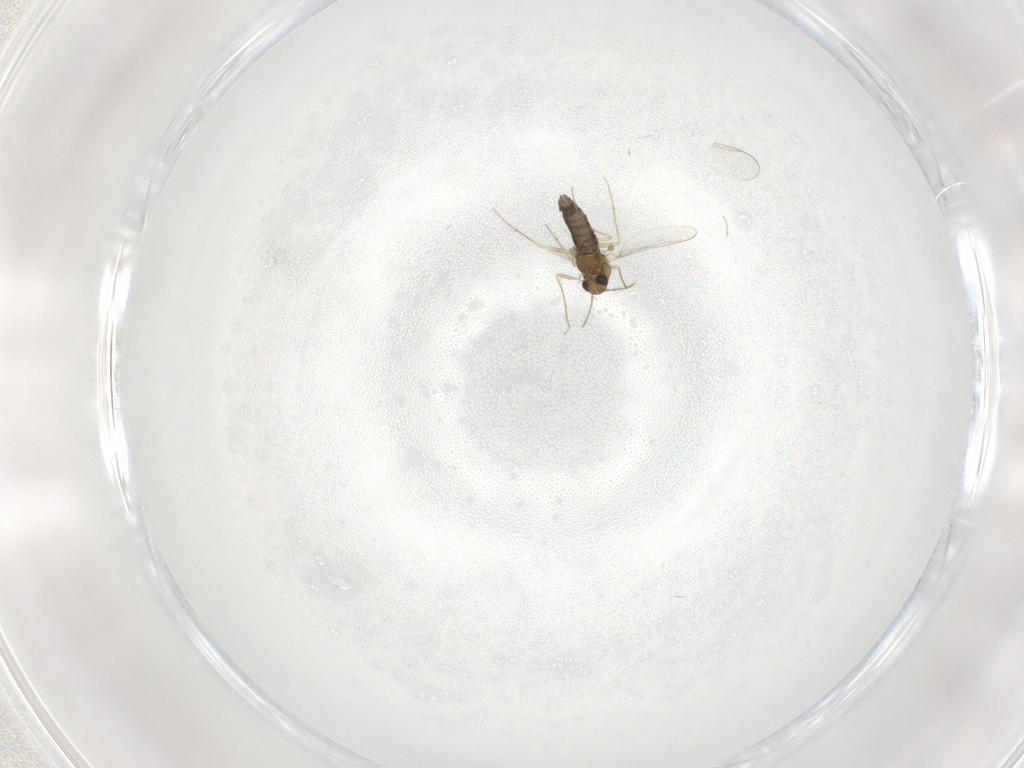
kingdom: Animalia
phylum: Arthropoda
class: Insecta
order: Diptera
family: Chironomidae
